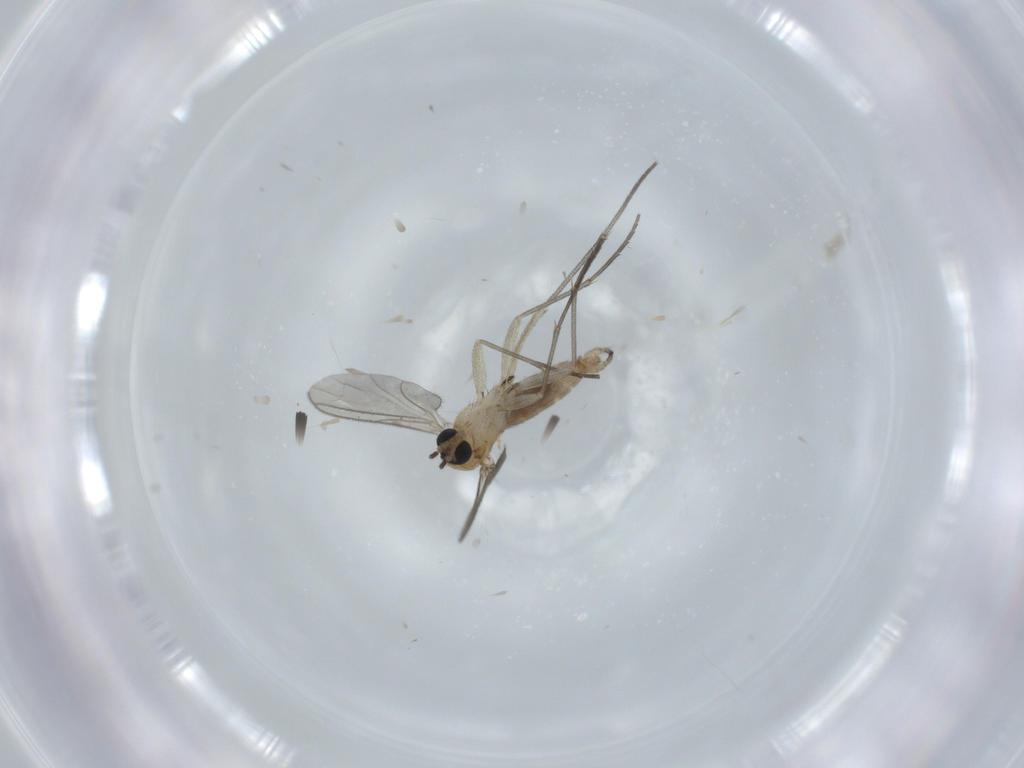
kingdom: Animalia
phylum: Arthropoda
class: Insecta
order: Diptera
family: Sciaridae
